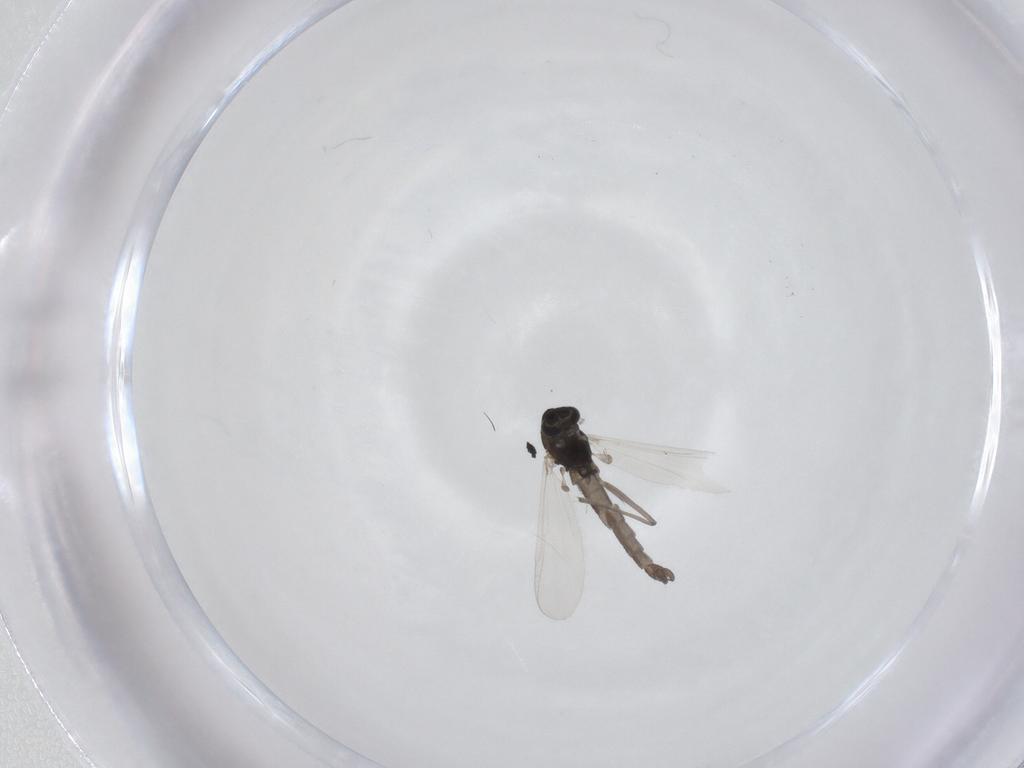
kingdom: Animalia
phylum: Arthropoda
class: Insecta
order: Diptera
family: Chironomidae
